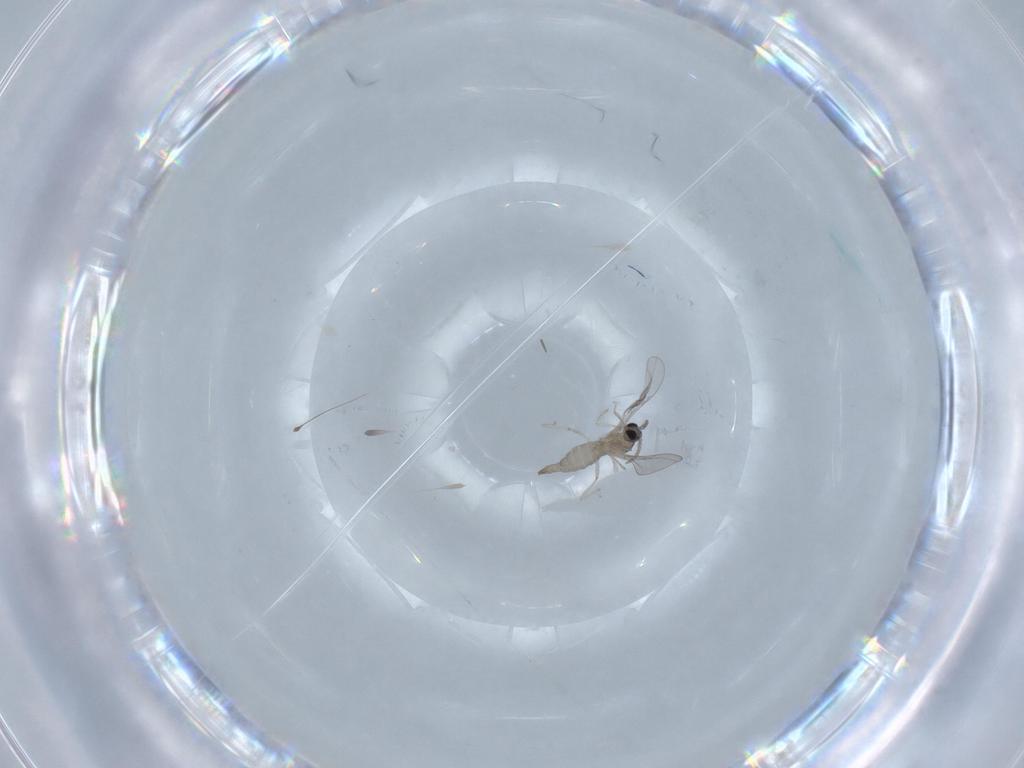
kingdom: Animalia
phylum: Arthropoda
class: Insecta
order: Diptera
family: Cecidomyiidae
